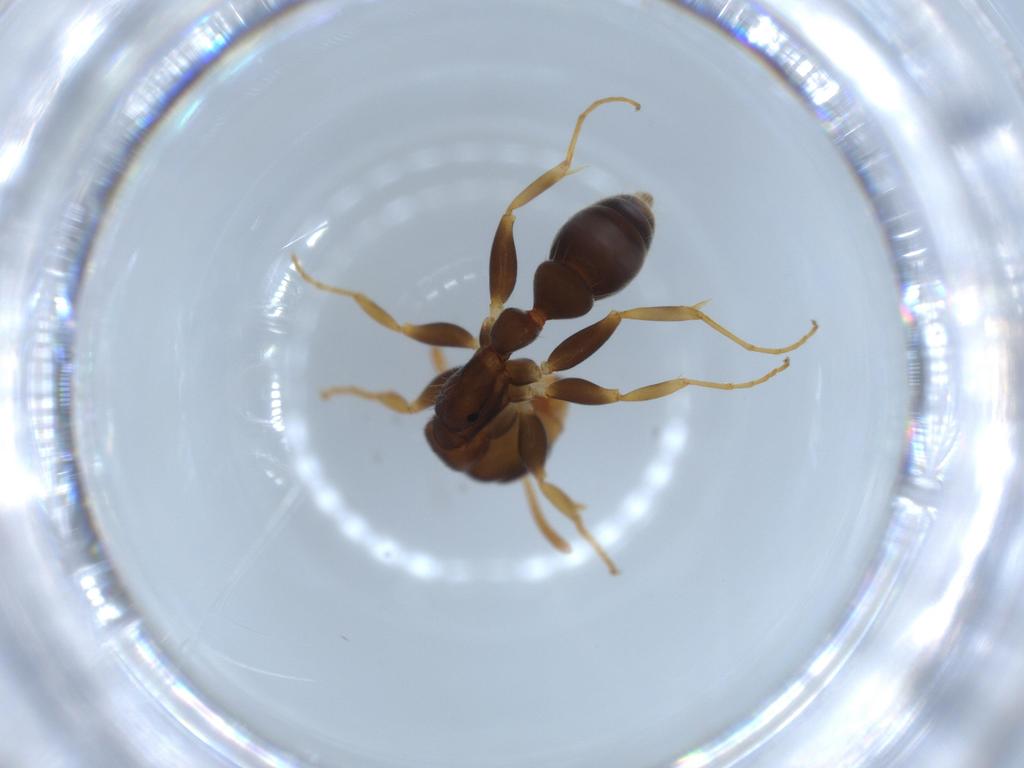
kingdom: Animalia
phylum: Arthropoda
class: Insecta
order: Hymenoptera
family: Formicidae
